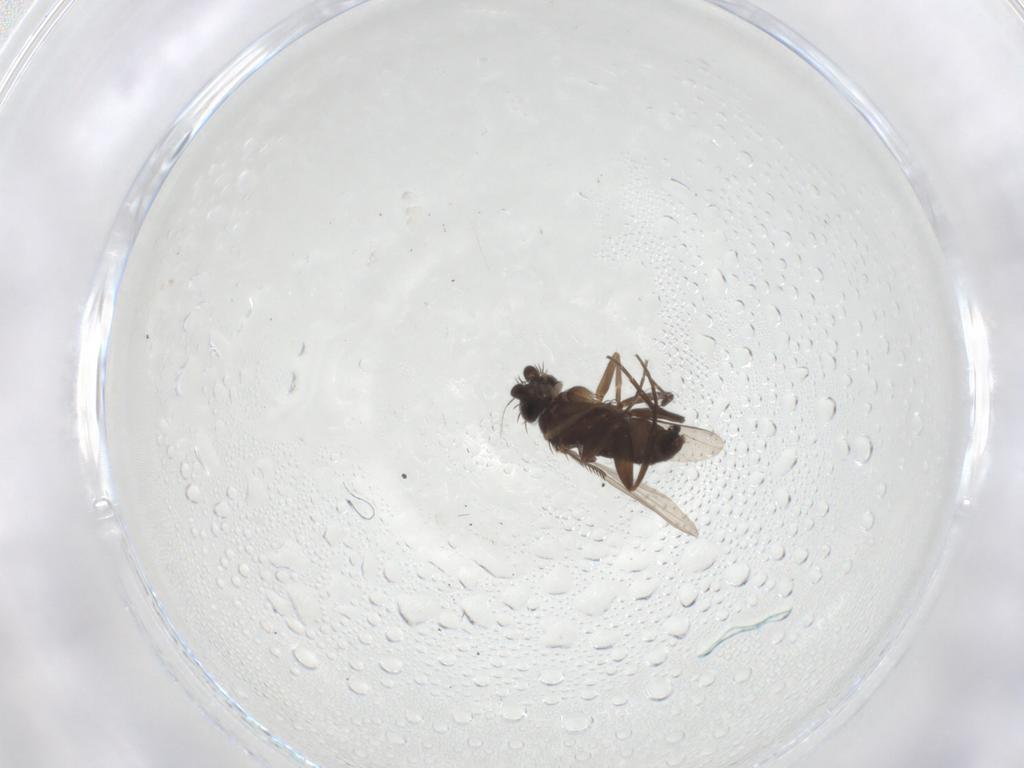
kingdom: Animalia
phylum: Arthropoda
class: Insecta
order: Diptera
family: Phoridae
